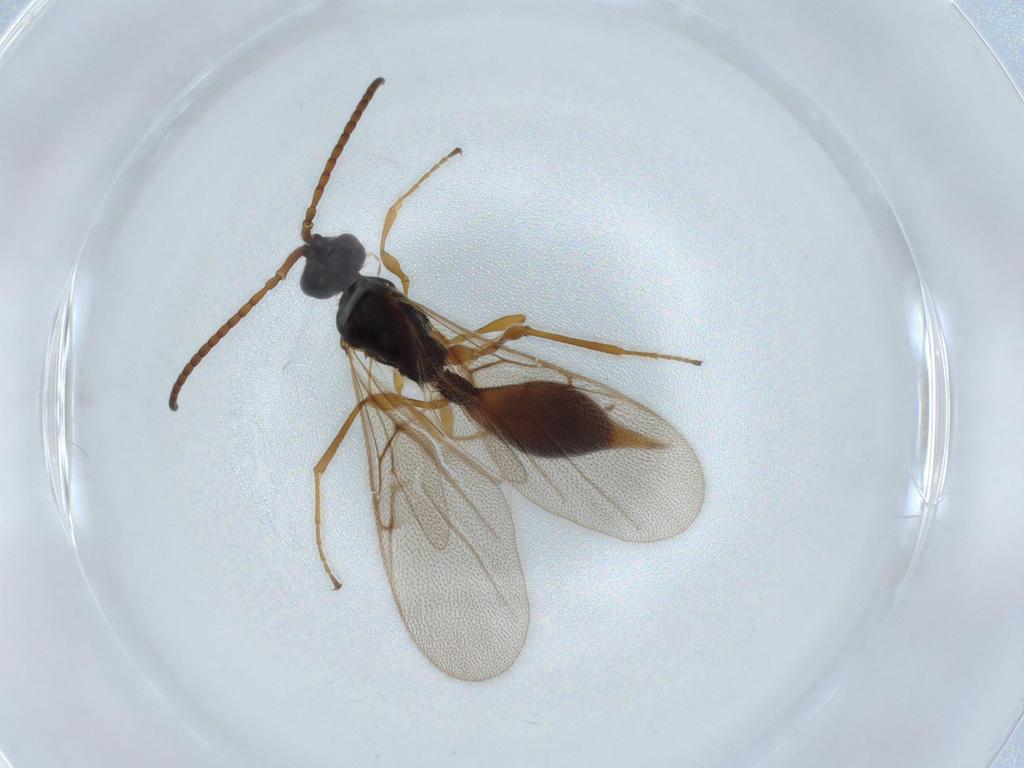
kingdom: Animalia
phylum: Arthropoda
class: Insecta
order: Hymenoptera
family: Diapriidae
